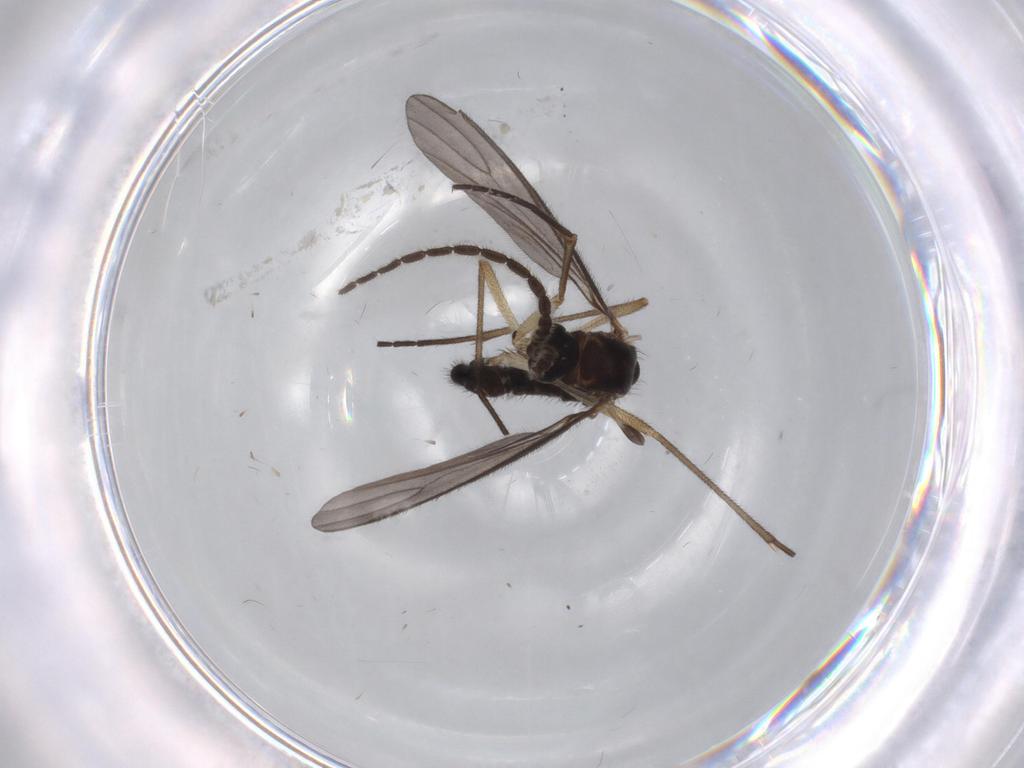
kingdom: Animalia
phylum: Arthropoda
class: Insecta
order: Diptera
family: Sciaridae
